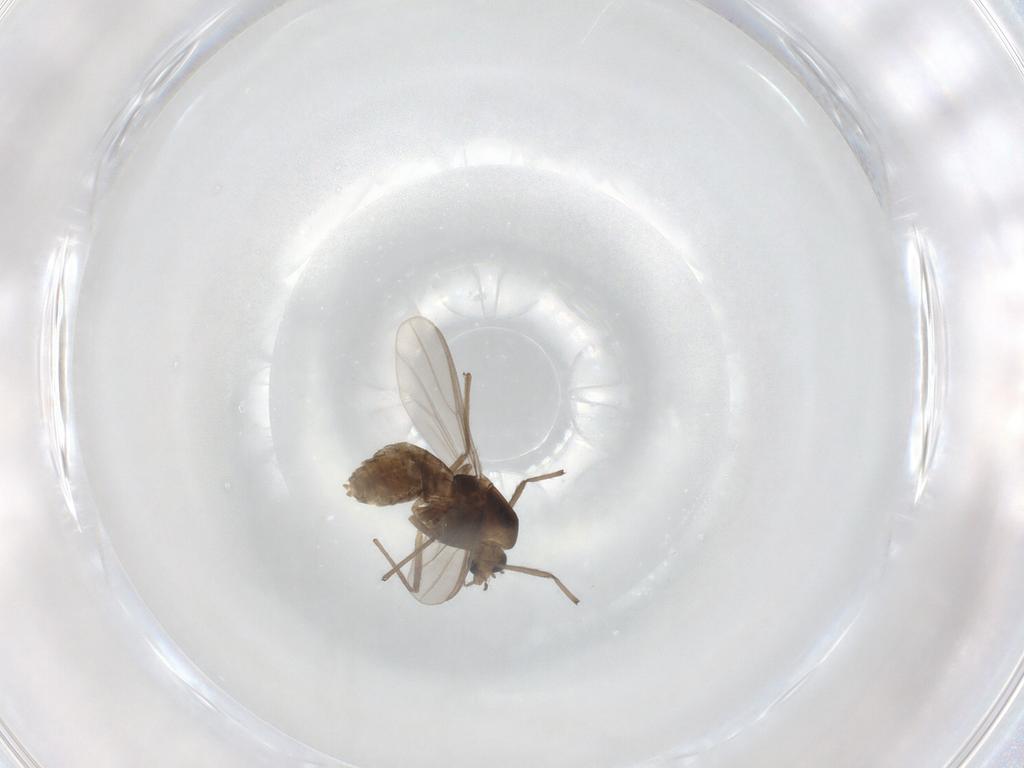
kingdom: Animalia
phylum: Arthropoda
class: Insecta
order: Diptera
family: Chironomidae
